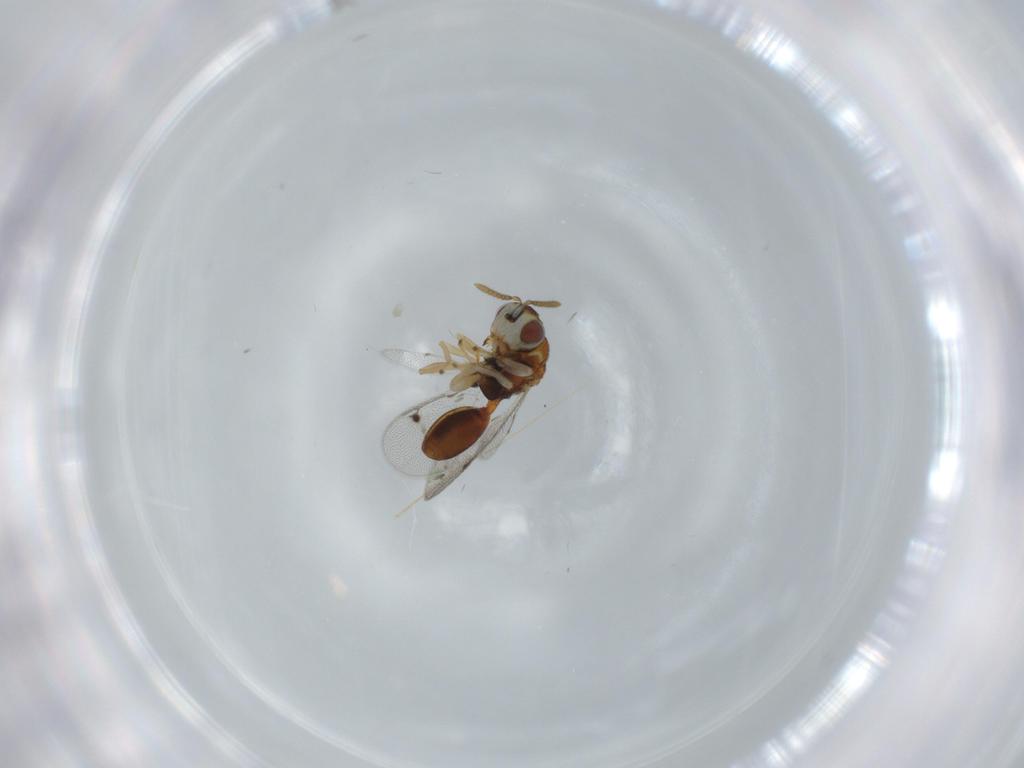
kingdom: Animalia
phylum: Arthropoda
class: Insecta
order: Hymenoptera
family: Eurytomidae
